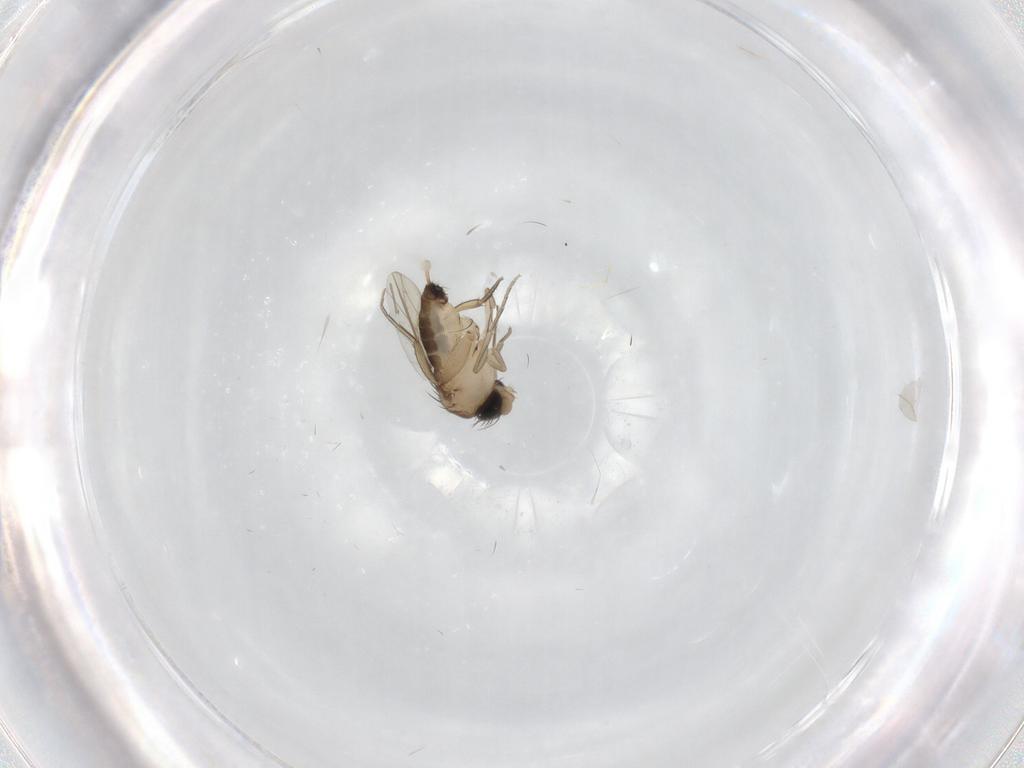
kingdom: Animalia
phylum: Arthropoda
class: Insecta
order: Diptera
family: Phoridae
